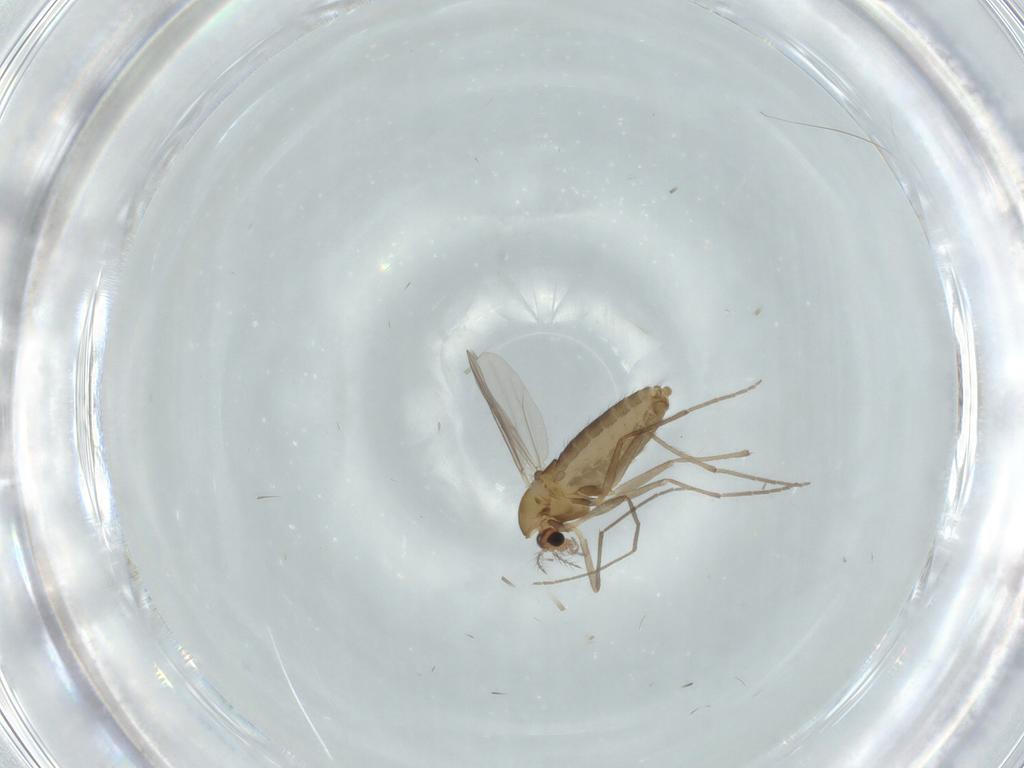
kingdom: Animalia
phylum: Arthropoda
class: Insecta
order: Diptera
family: Chironomidae
